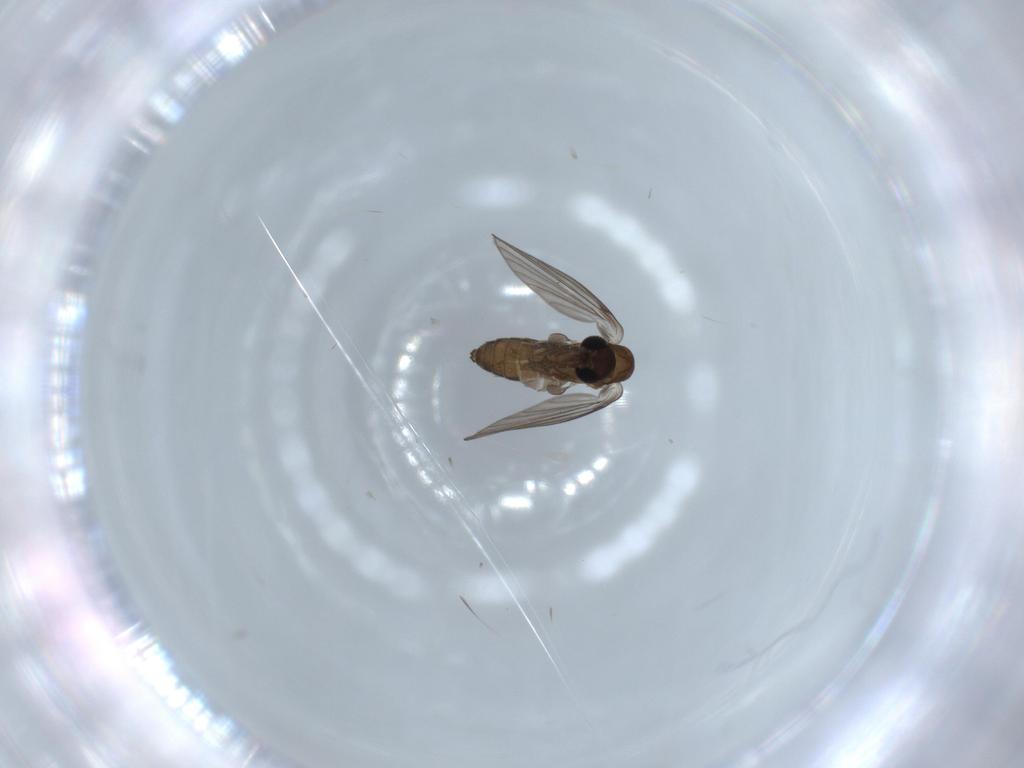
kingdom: Animalia
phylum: Arthropoda
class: Insecta
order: Diptera
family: Psychodidae
